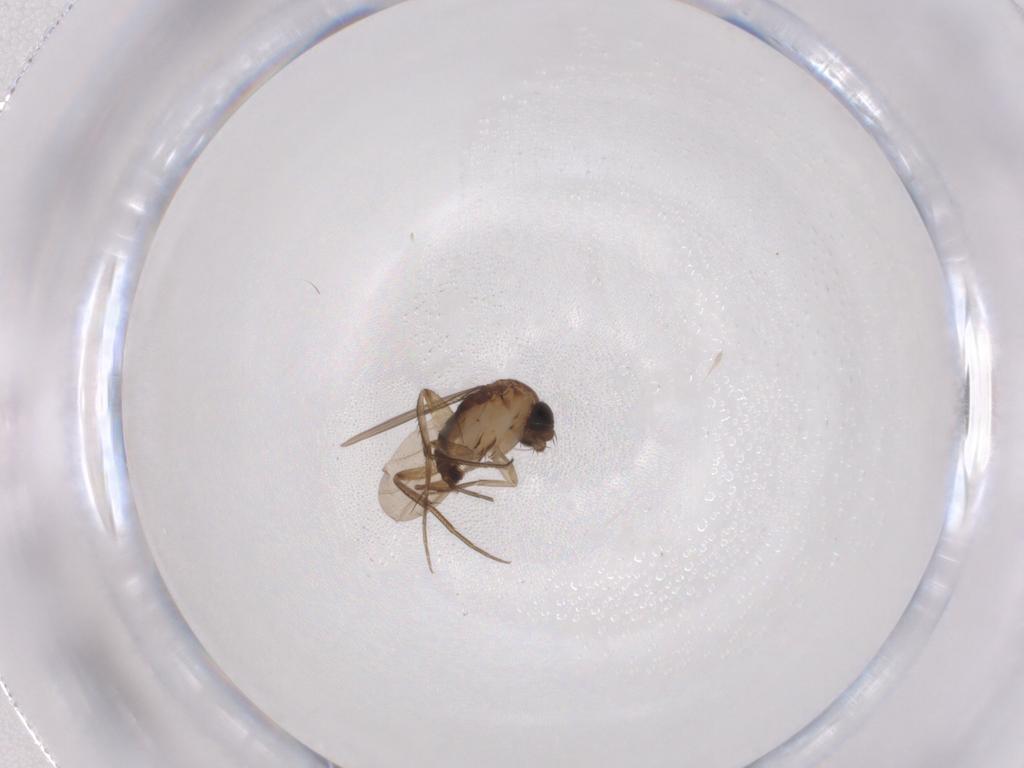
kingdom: Animalia
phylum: Arthropoda
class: Insecta
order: Diptera
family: Phoridae
